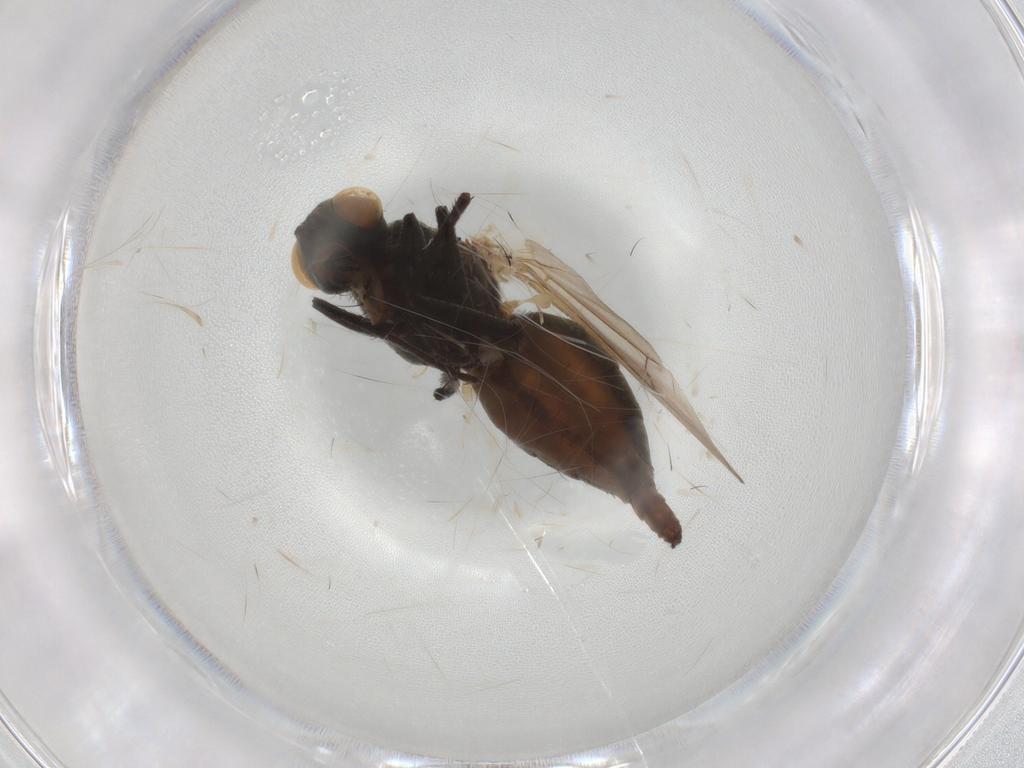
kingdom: Animalia
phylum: Arthropoda
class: Insecta
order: Diptera
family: Anthomyiidae
